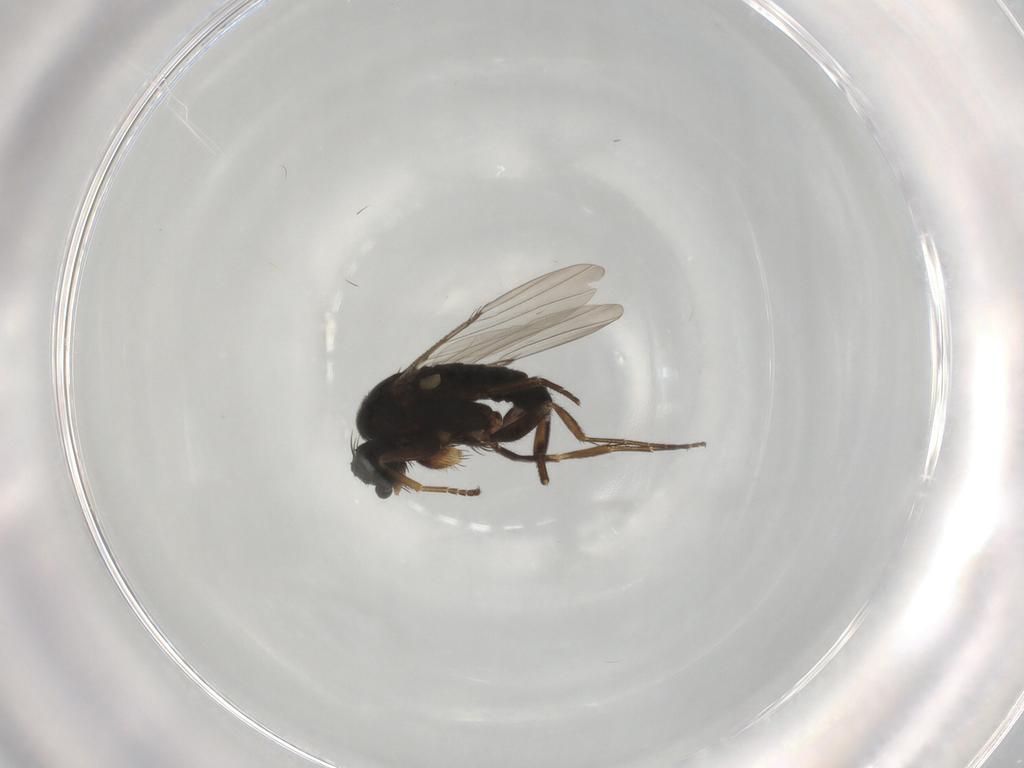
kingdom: Animalia
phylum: Arthropoda
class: Insecta
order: Diptera
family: Phoridae
